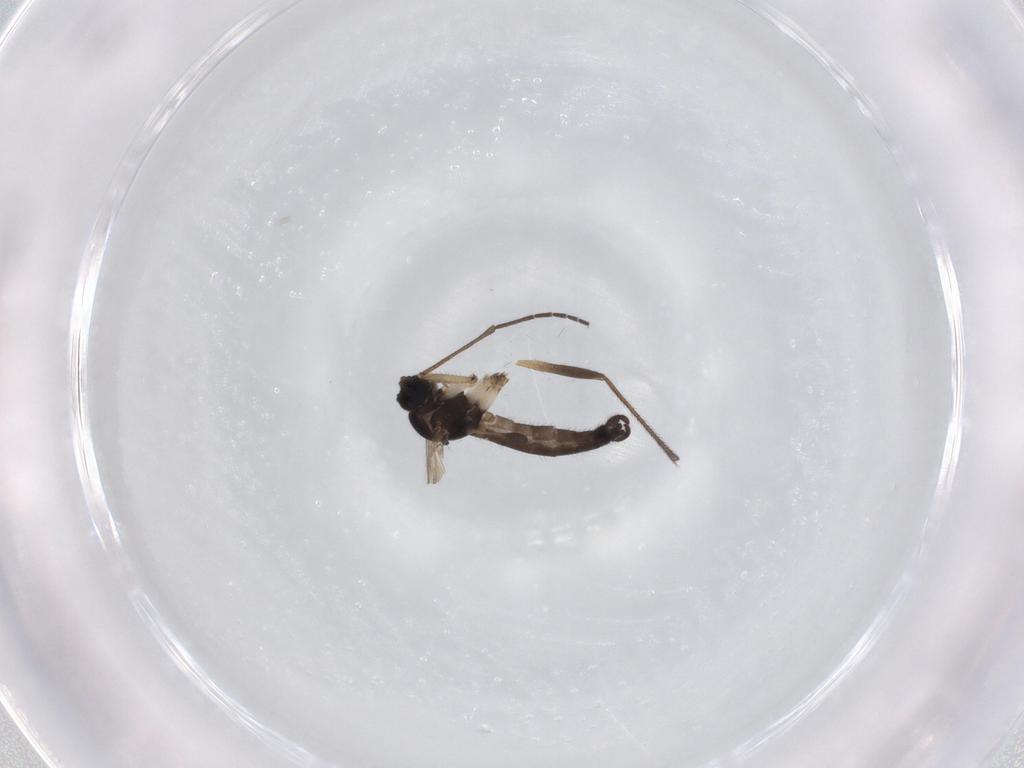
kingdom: Animalia
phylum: Arthropoda
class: Insecta
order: Diptera
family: Sciaridae
